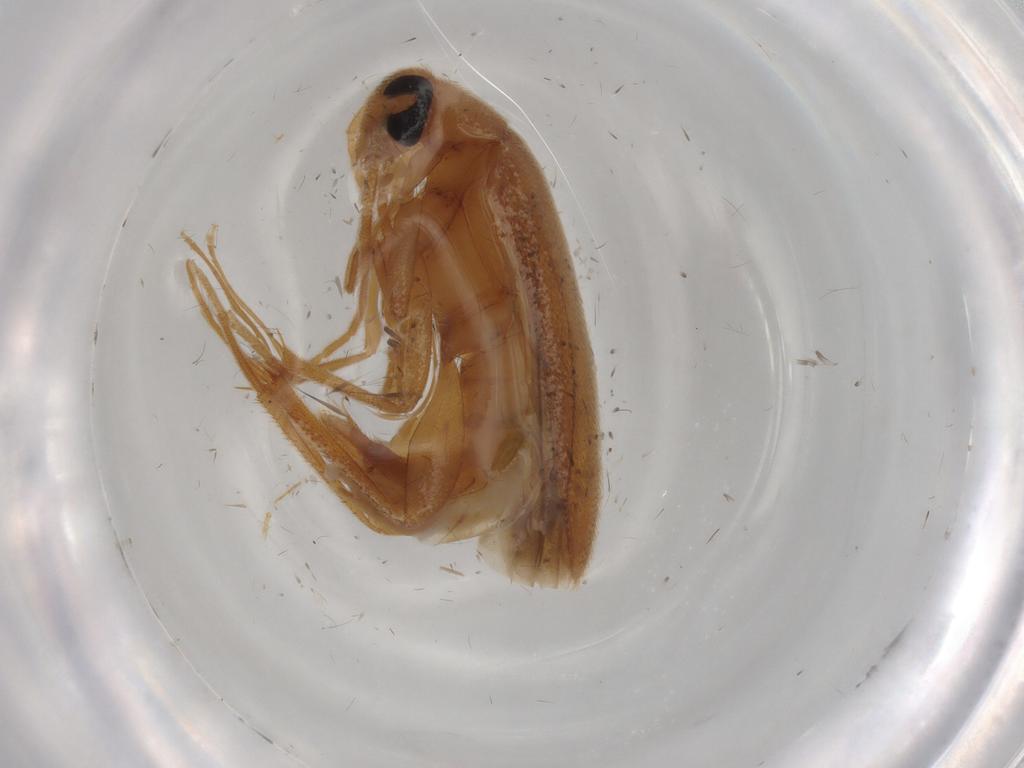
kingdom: Animalia
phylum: Arthropoda
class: Insecta
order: Coleoptera
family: Scraptiidae
